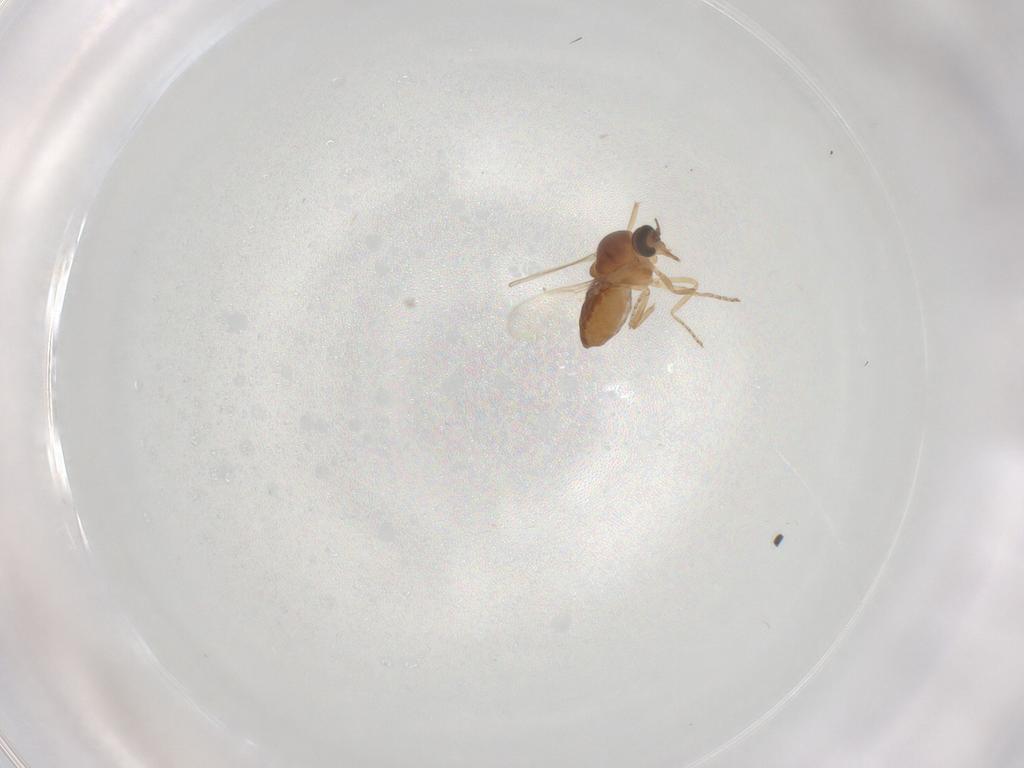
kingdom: Animalia
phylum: Arthropoda
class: Insecta
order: Diptera
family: Ceratopogonidae
